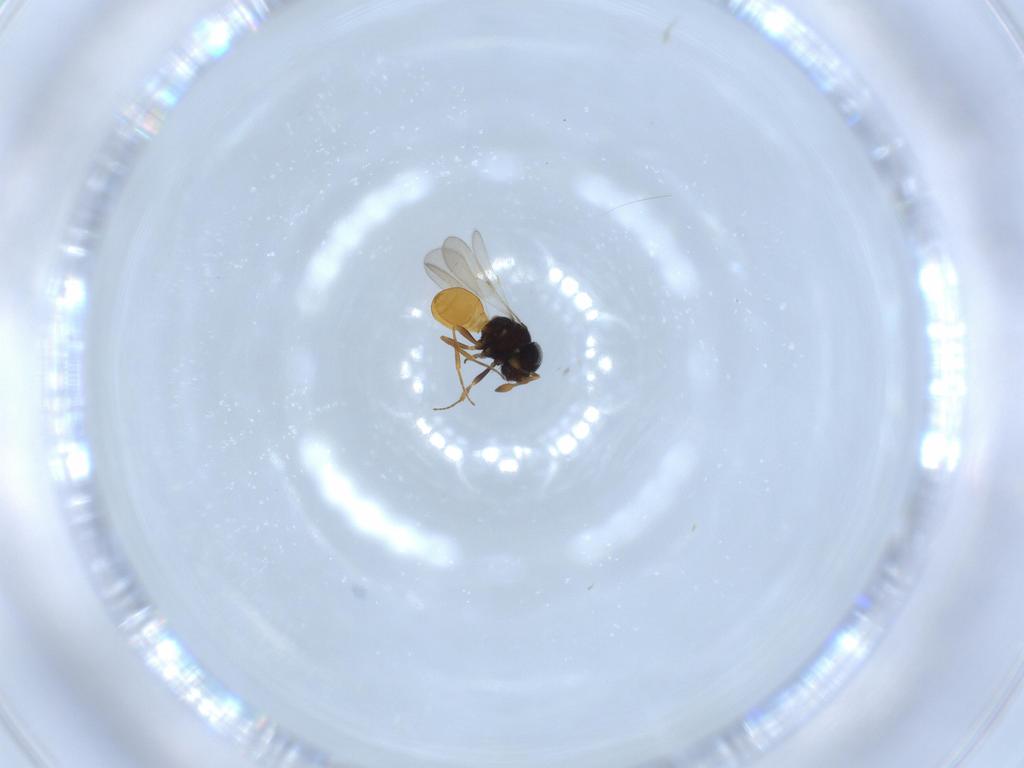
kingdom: Animalia
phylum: Arthropoda
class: Insecta
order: Hymenoptera
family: Scelionidae
